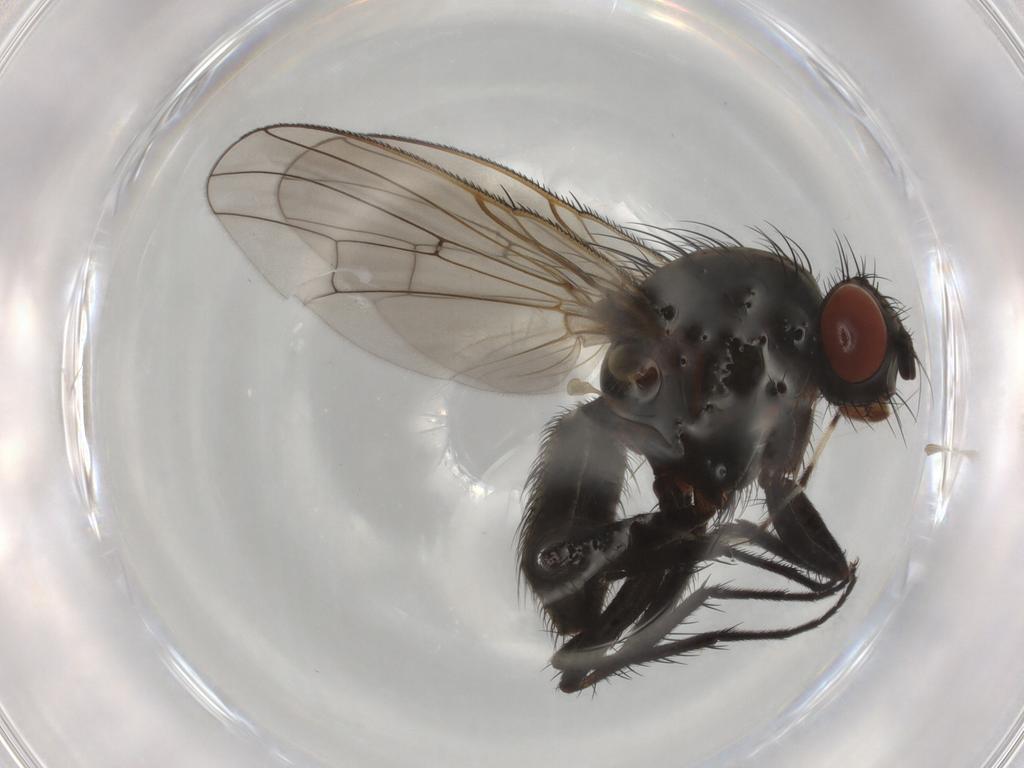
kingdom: Animalia
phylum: Arthropoda
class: Insecta
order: Diptera
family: Anthomyiidae
